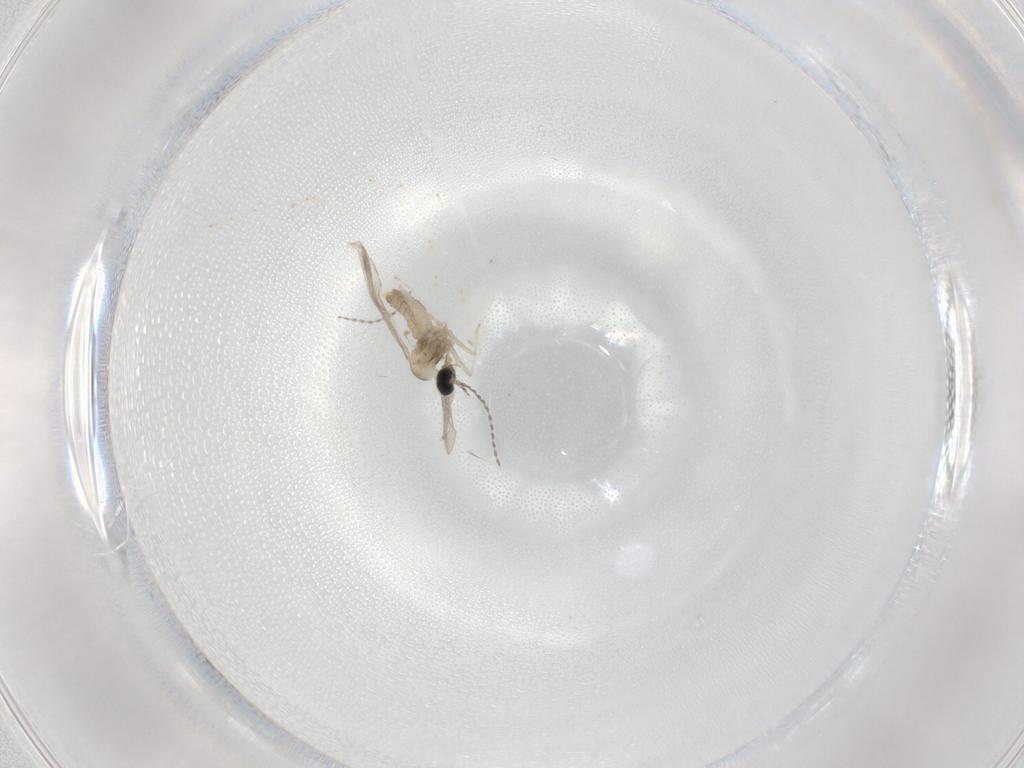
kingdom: Animalia
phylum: Arthropoda
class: Insecta
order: Diptera
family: Cecidomyiidae
